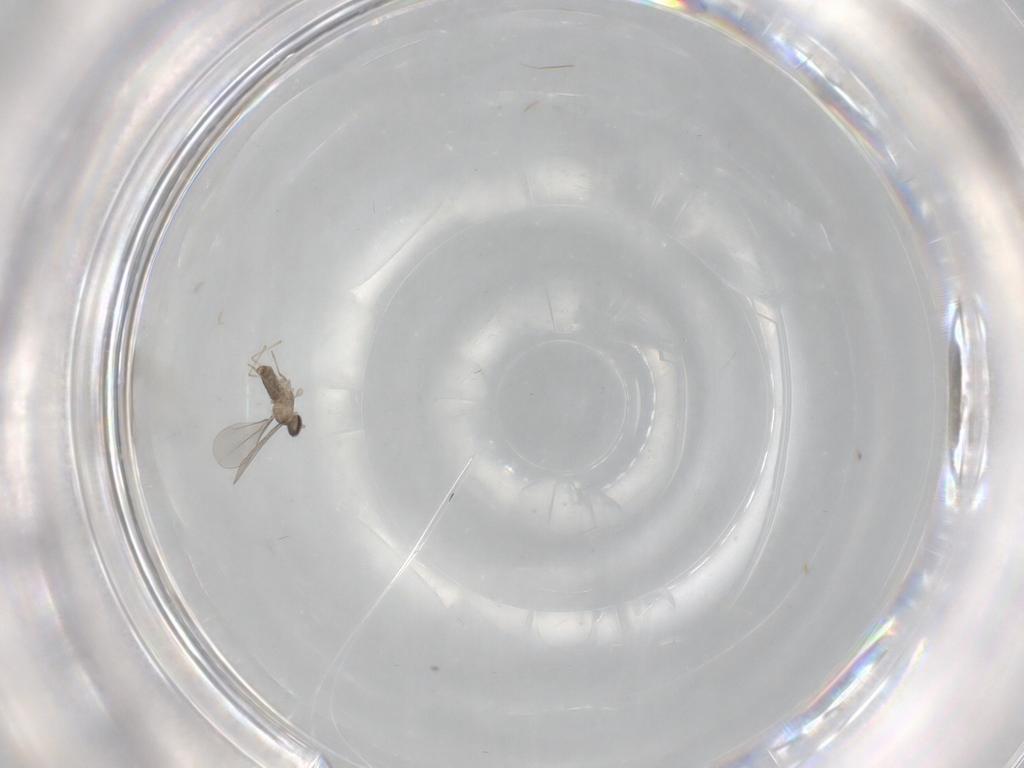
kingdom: Animalia
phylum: Arthropoda
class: Insecta
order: Diptera
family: Cecidomyiidae
